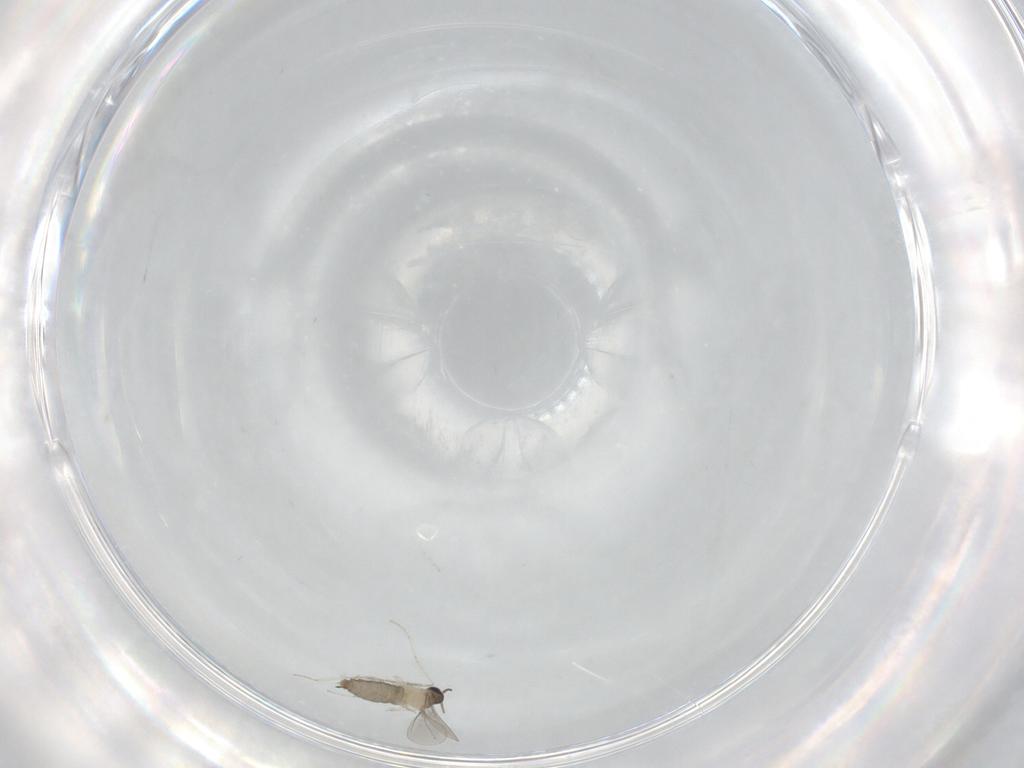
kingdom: Animalia
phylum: Arthropoda
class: Insecta
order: Diptera
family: Cecidomyiidae
